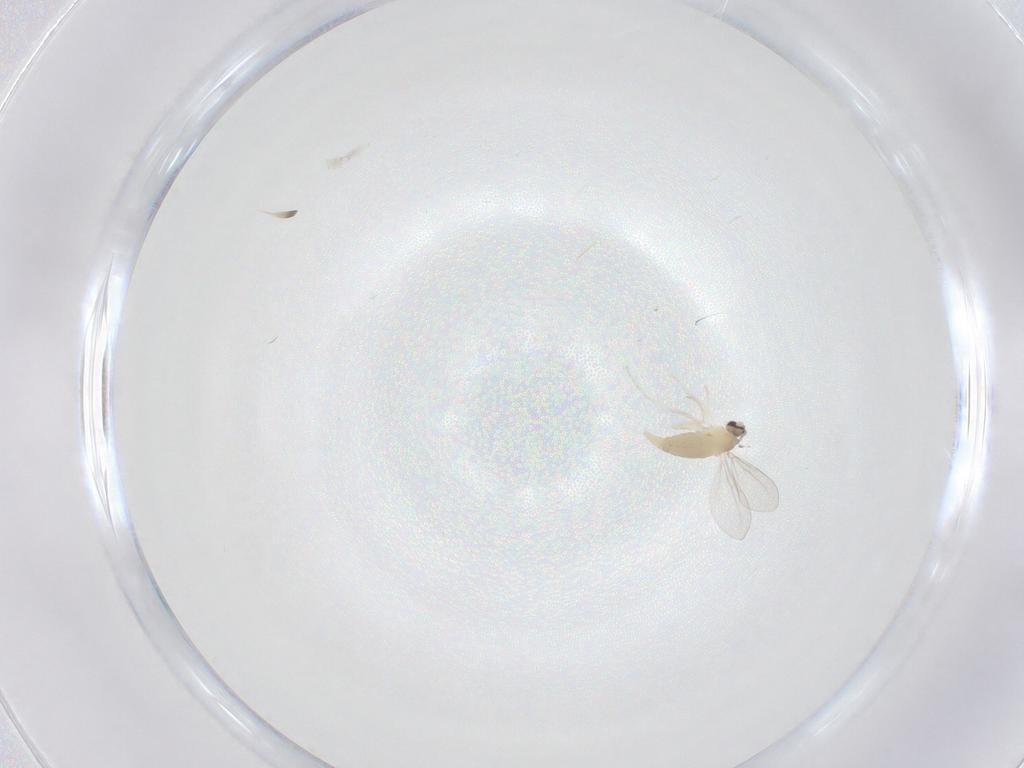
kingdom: Animalia
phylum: Arthropoda
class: Insecta
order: Diptera
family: Cecidomyiidae
